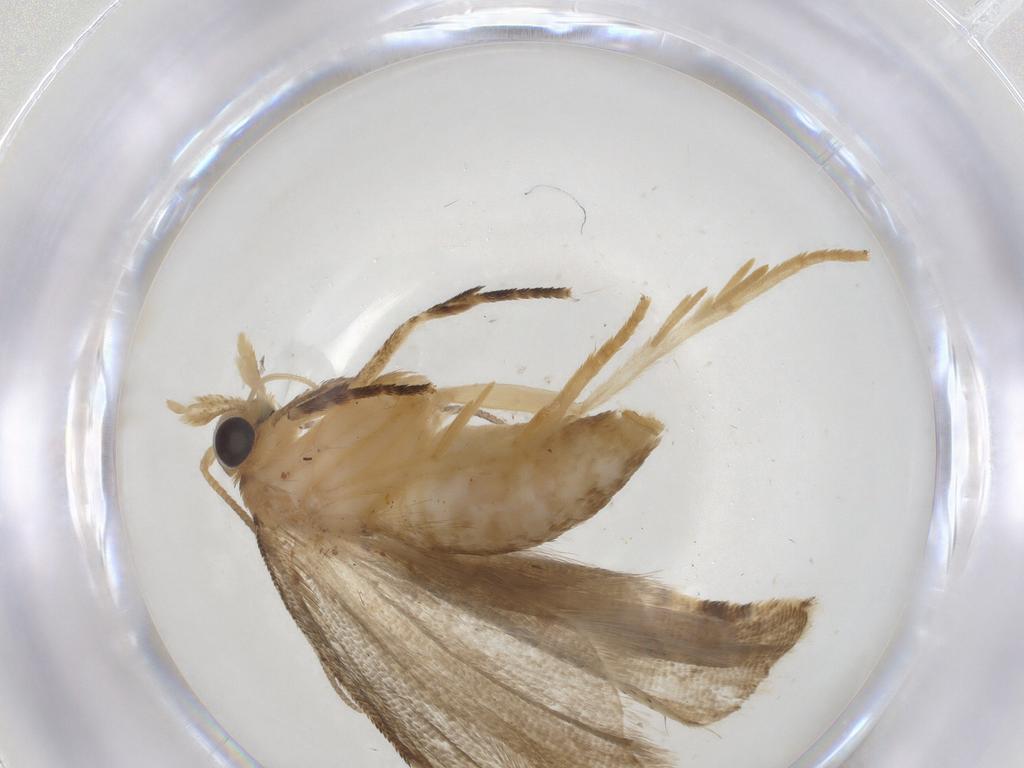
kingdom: Animalia
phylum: Arthropoda
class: Insecta
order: Lepidoptera
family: Tortricidae
